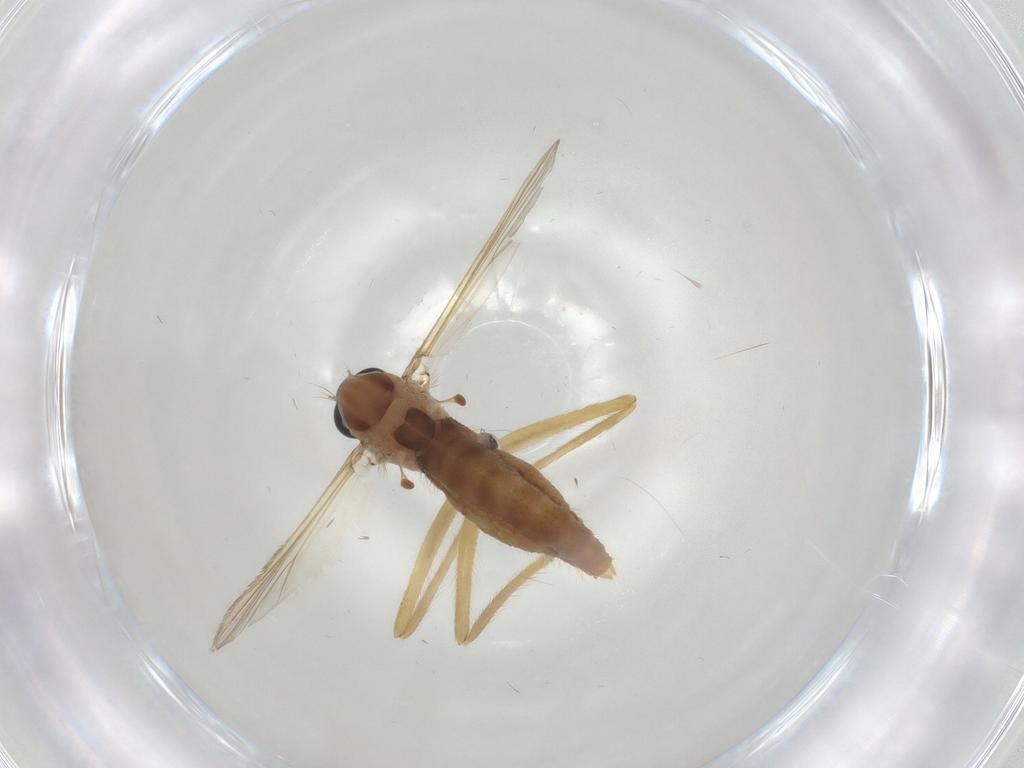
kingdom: Animalia
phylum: Arthropoda
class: Insecta
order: Diptera
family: Chironomidae
